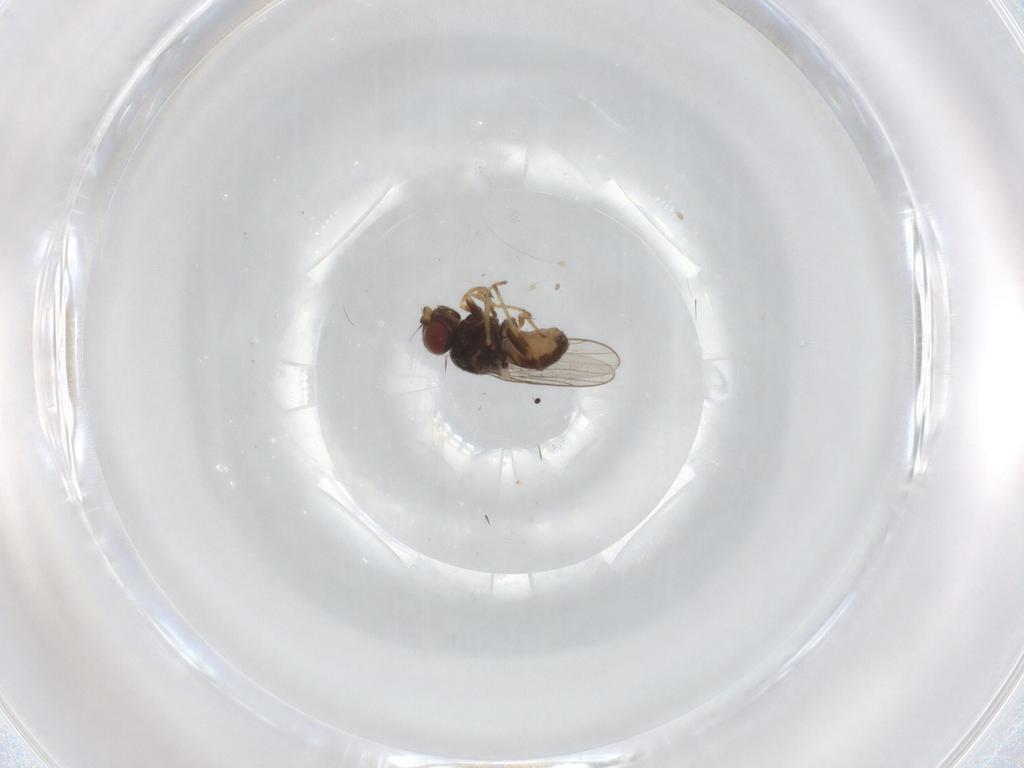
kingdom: Animalia
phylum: Arthropoda
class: Insecta
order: Diptera
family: Chloropidae
